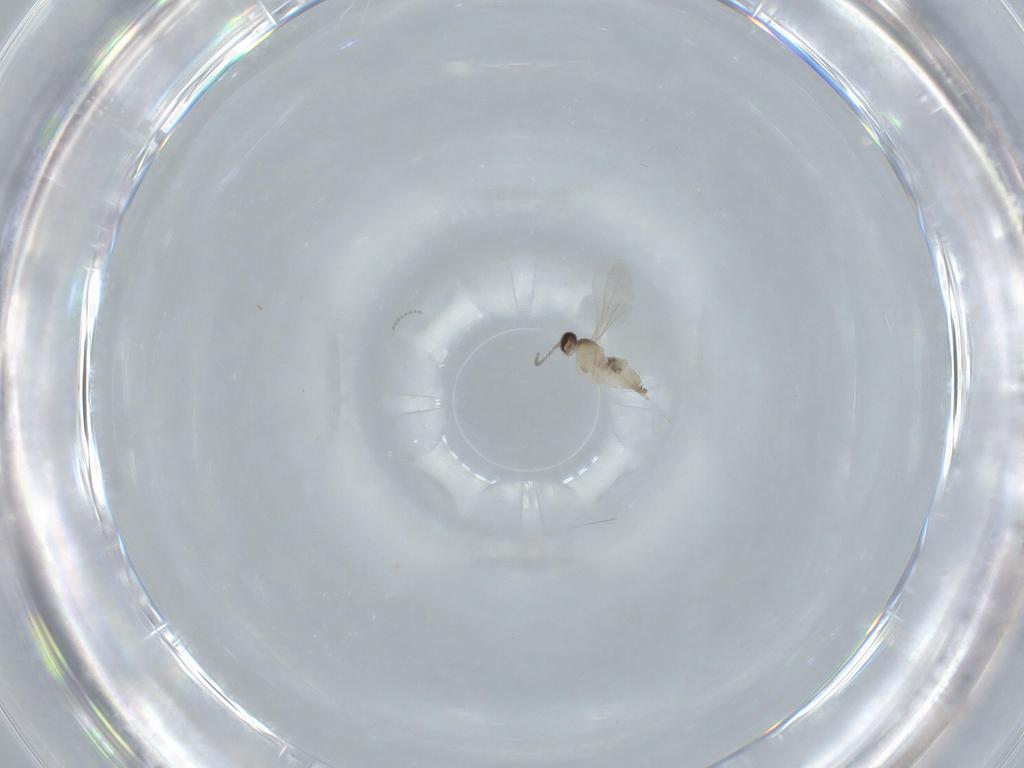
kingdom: Animalia
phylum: Arthropoda
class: Insecta
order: Diptera
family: Cecidomyiidae
